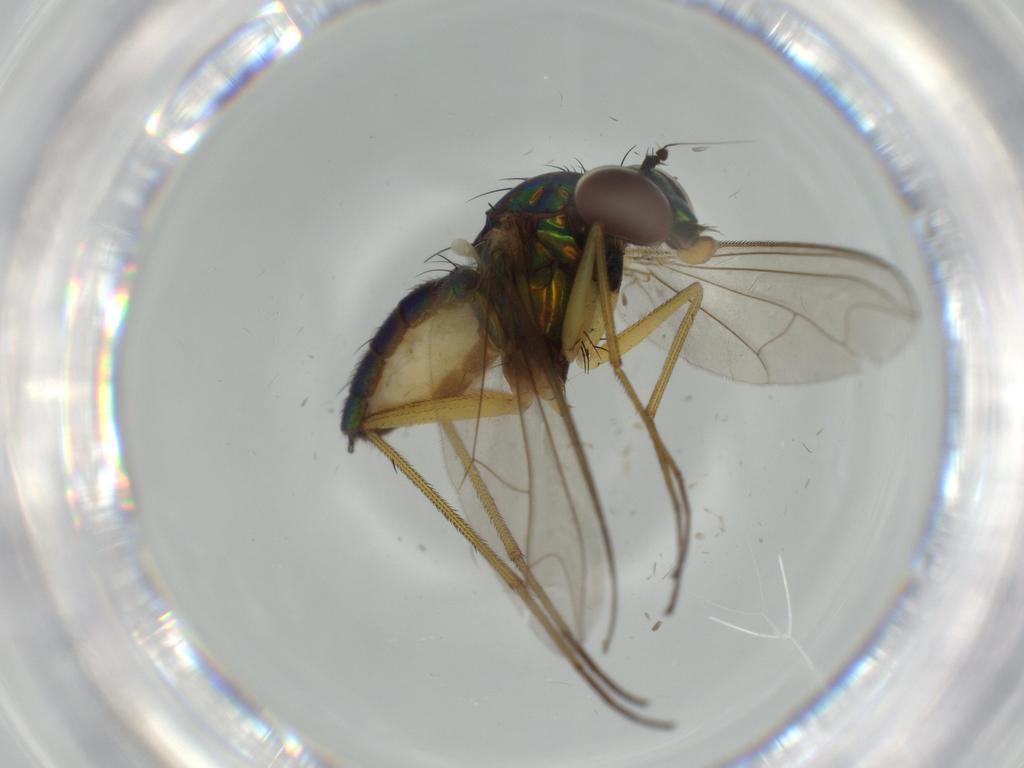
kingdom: Animalia
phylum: Arthropoda
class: Insecta
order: Diptera
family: Dolichopodidae
